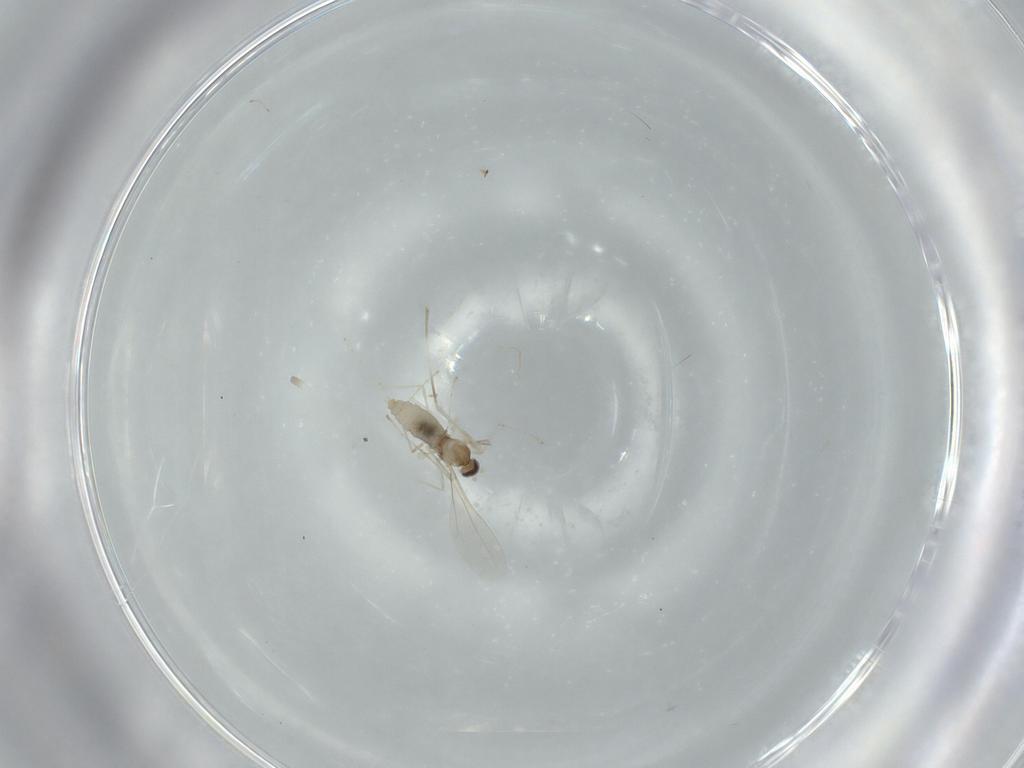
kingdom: Animalia
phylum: Arthropoda
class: Insecta
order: Diptera
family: Cecidomyiidae
